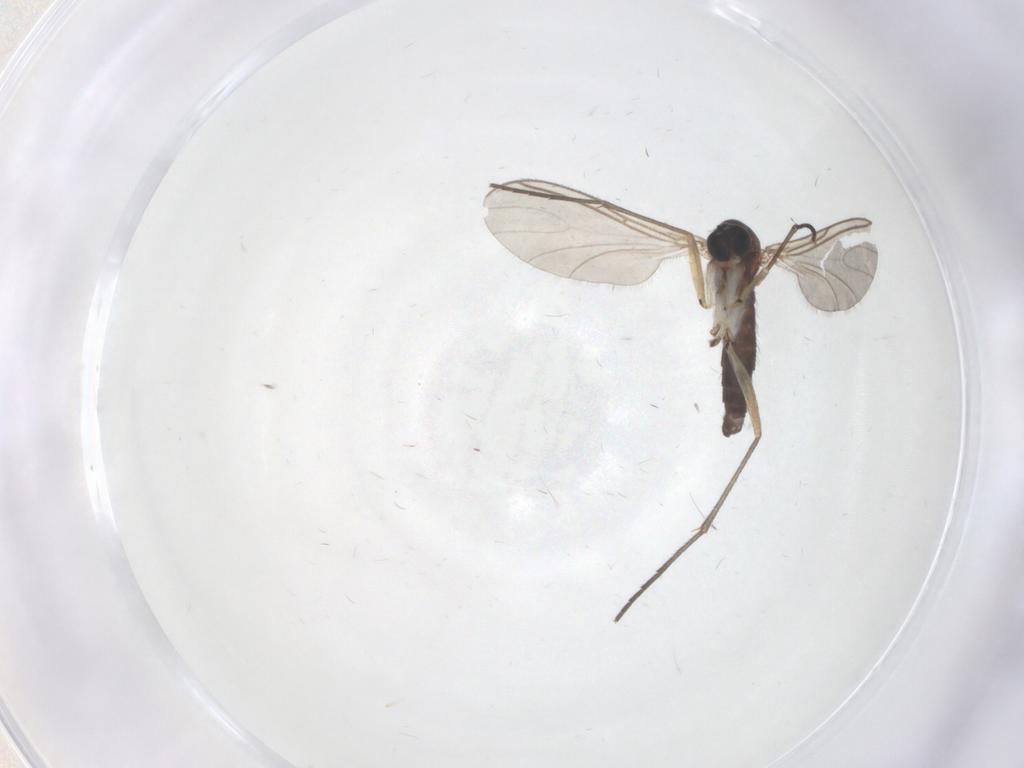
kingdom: Animalia
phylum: Arthropoda
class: Insecta
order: Diptera
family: Sciaridae
